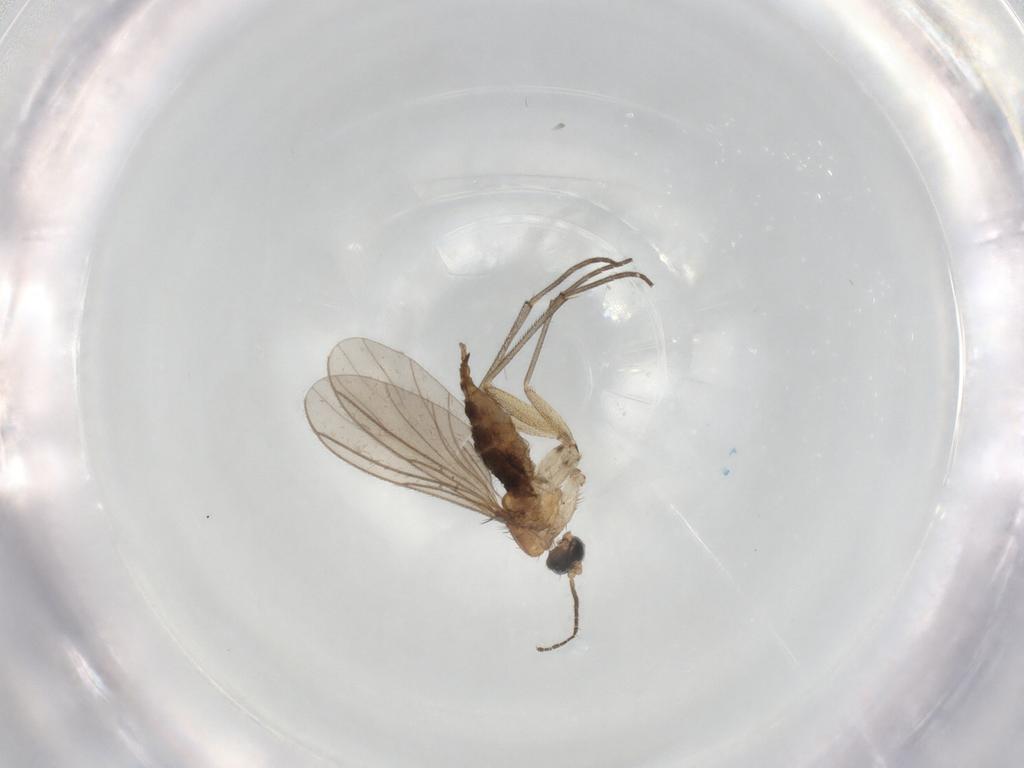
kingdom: Animalia
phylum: Arthropoda
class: Insecta
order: Diptera
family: Sciaridae
